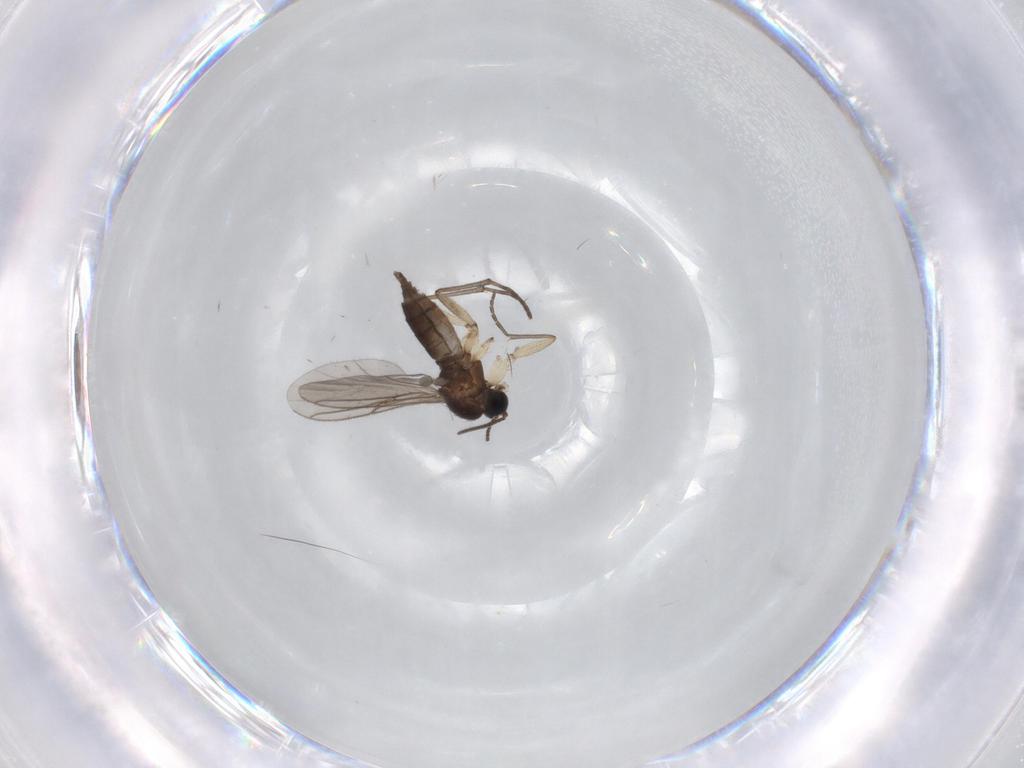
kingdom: Animalia
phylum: Arthropoda
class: Insecta
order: Diptera
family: Cecidomyiidae
